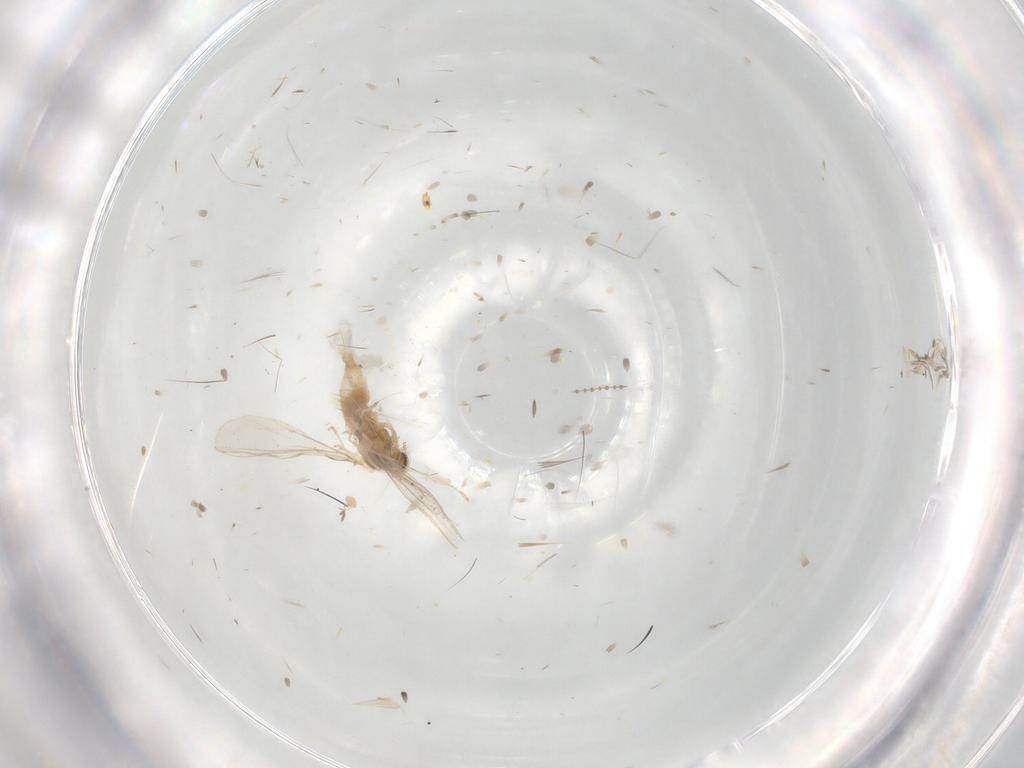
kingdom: Animalia
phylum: Arthropoda
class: Insecta
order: Diptera
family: Cecidomyiidae
